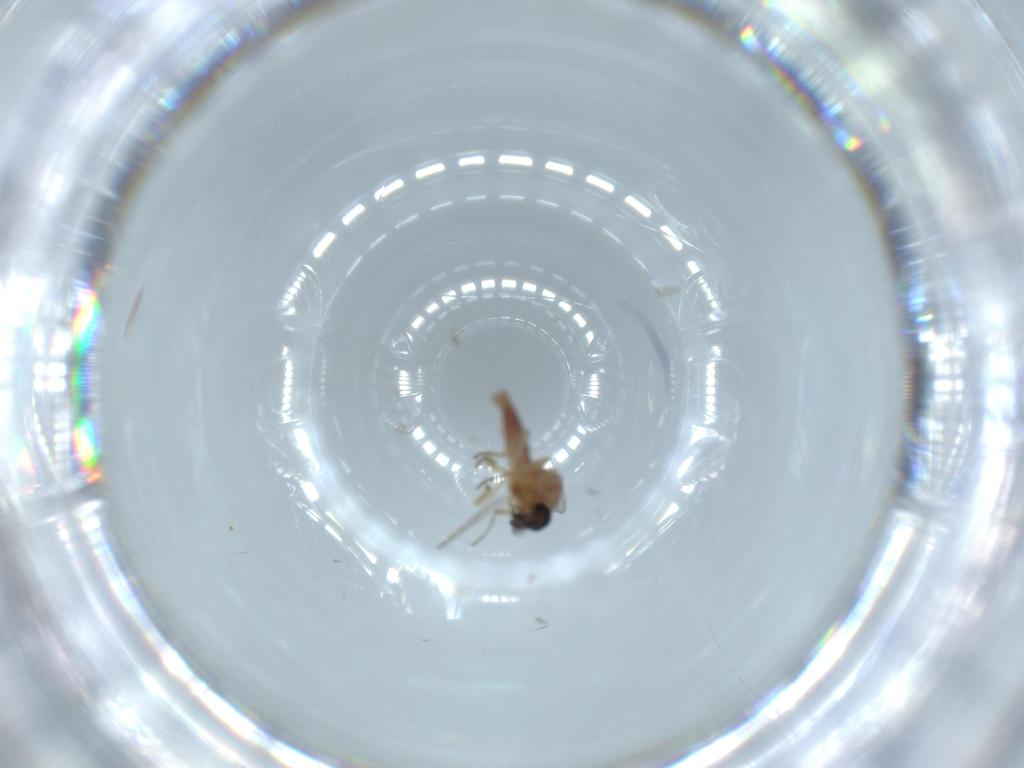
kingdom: Animalia
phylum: Arthropoda
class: Insecta
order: Diptera
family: Ceratopogonidae
